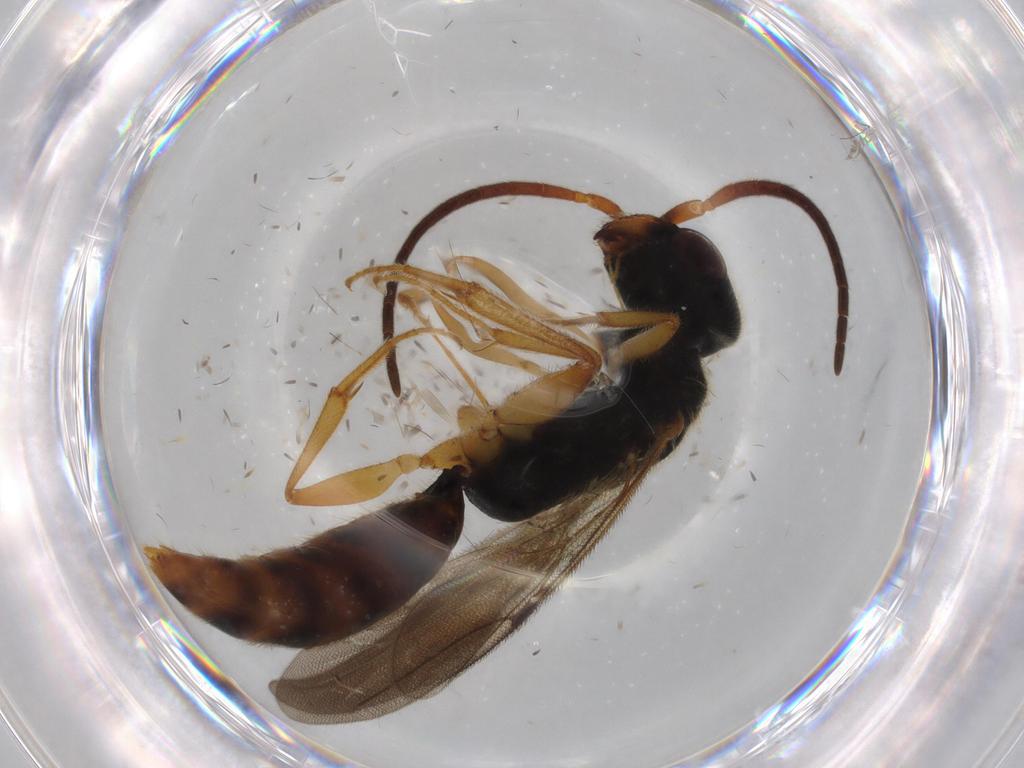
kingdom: Animalia
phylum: Arthropoda
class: Insecta
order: Hymenoptera
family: Bethylidae
